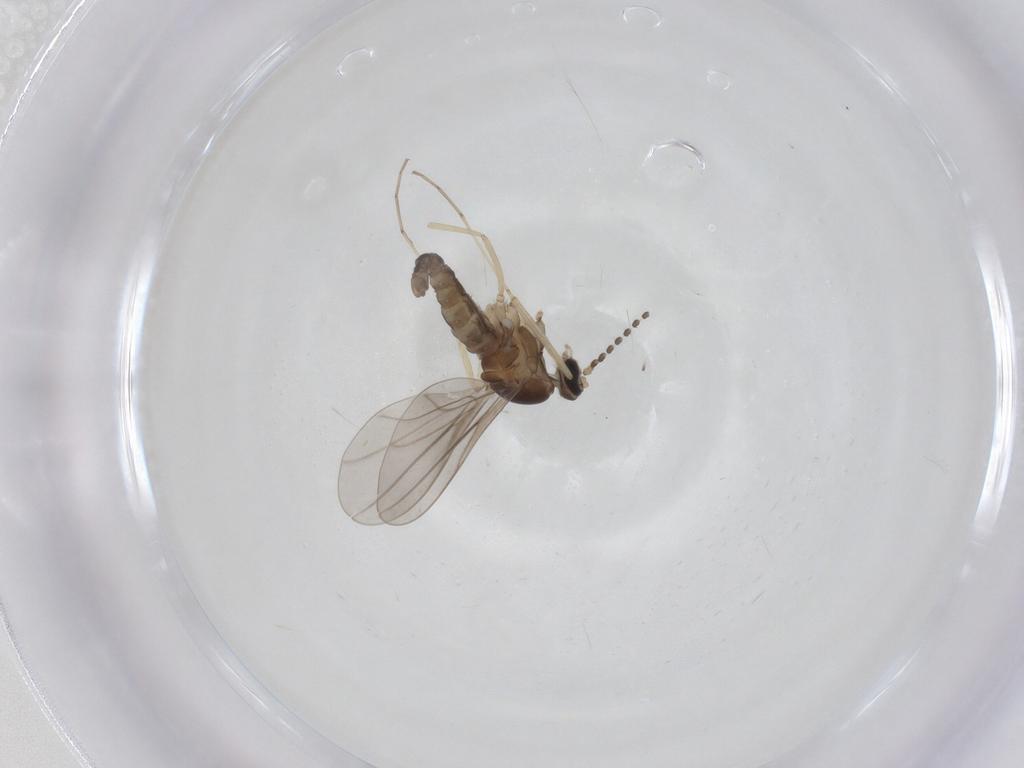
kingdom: Animalia
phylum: Arthropoda
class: Insecta
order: Diptera
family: Cecidomyiidae
